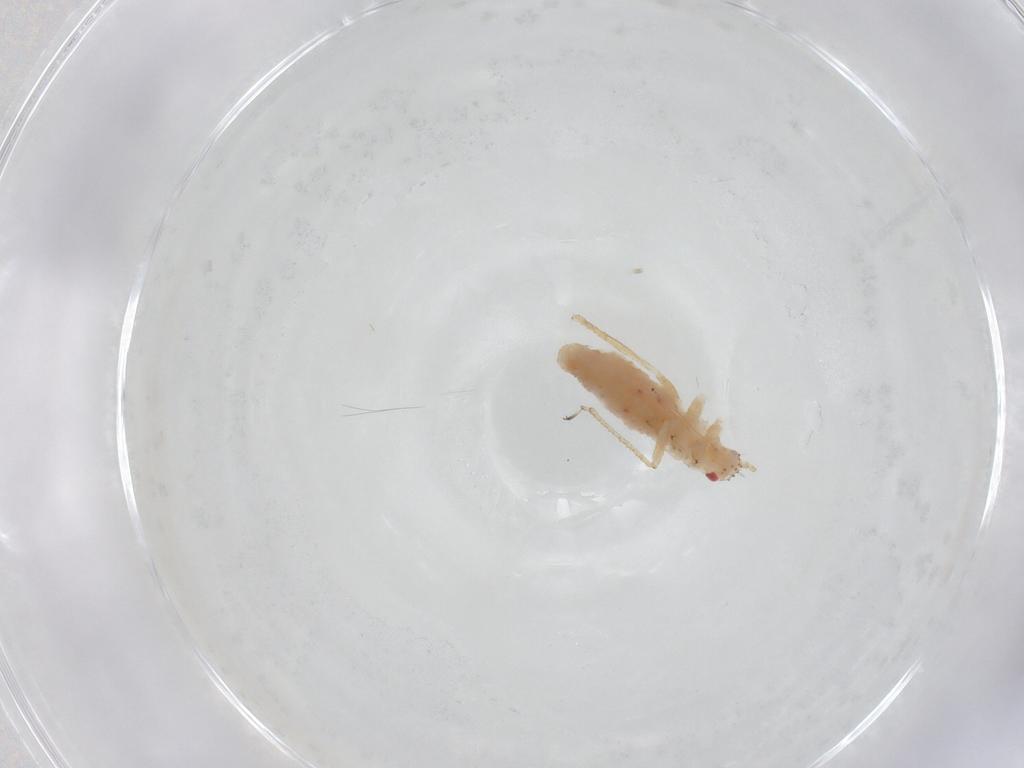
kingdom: Animalia
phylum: Arthropoda
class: Insecta
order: Hemiptera
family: Aphididae
